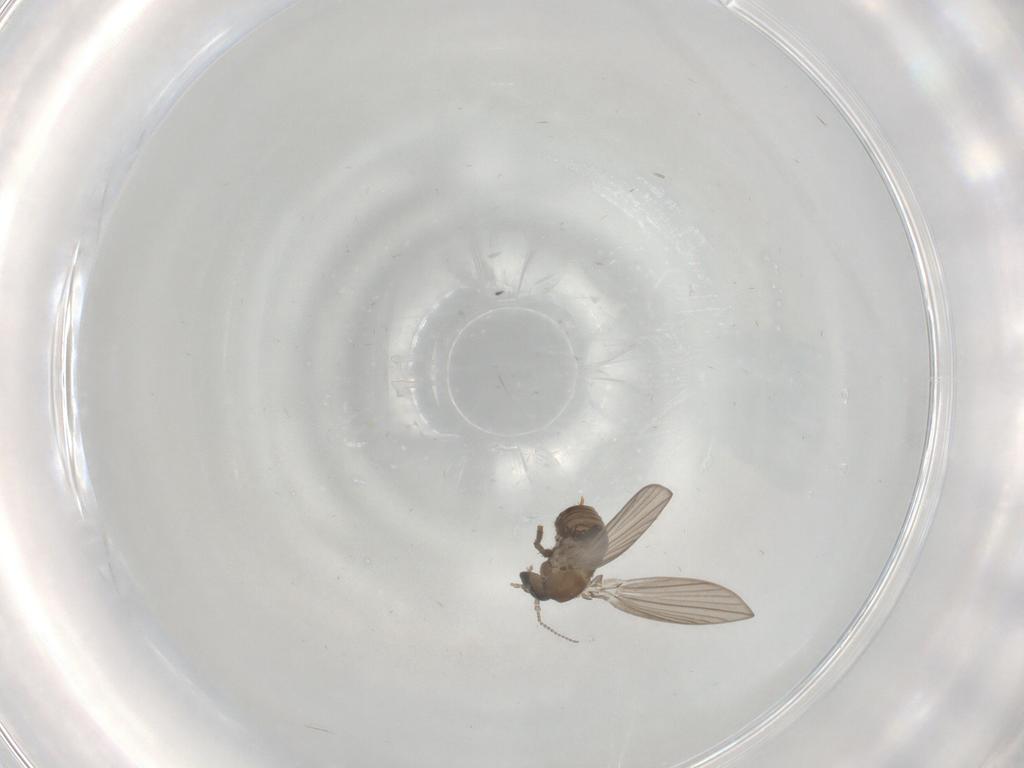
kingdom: Animalia
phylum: Arthropoda
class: Insecta
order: Diptera
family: Psychodidae
